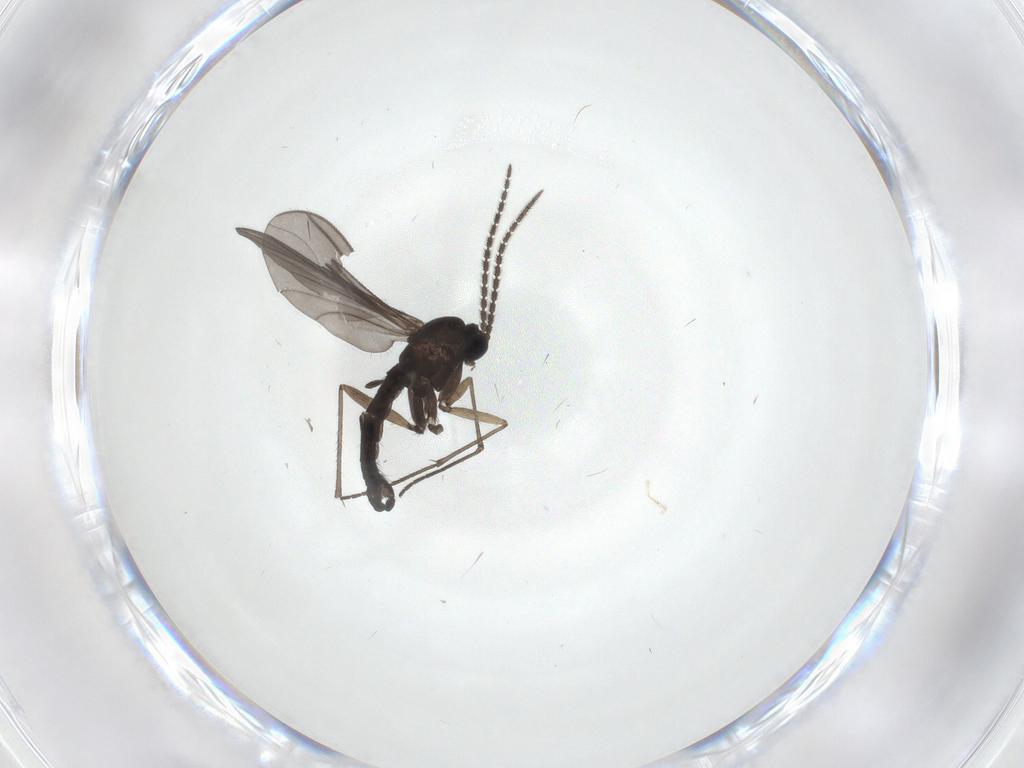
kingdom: Animalia
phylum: Arthropoda
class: Insecta
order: Diptera
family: Sciaridae
